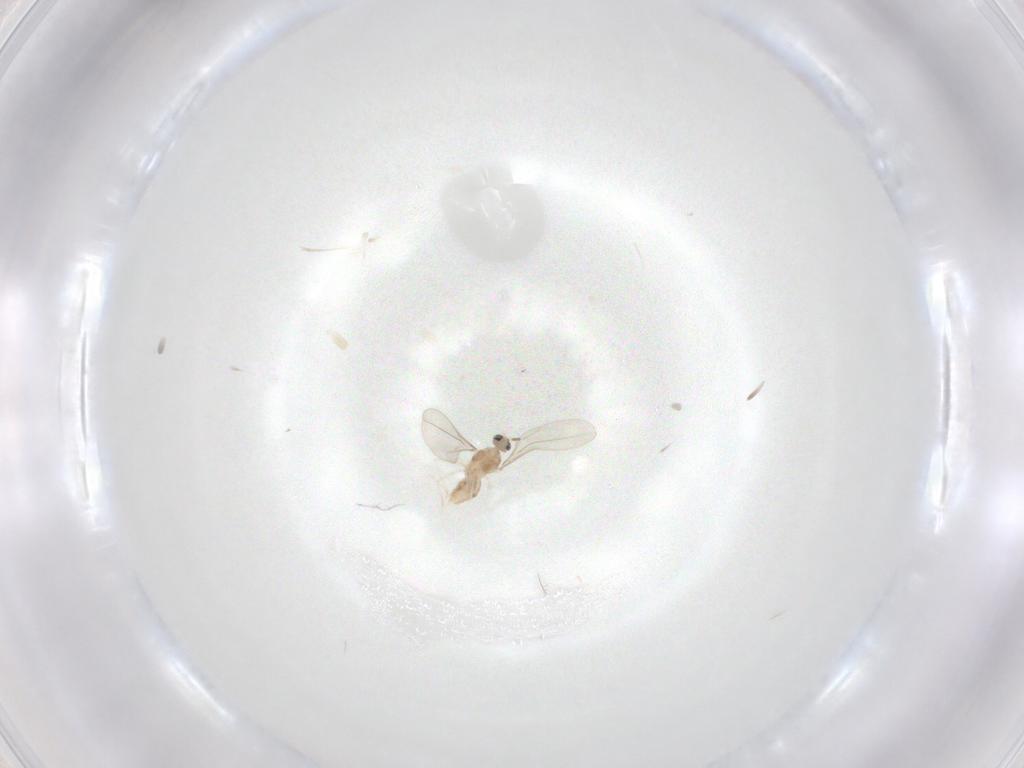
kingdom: Animalia
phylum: Arthropoda
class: Insecta
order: Diptera
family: Cecidomyiidae
